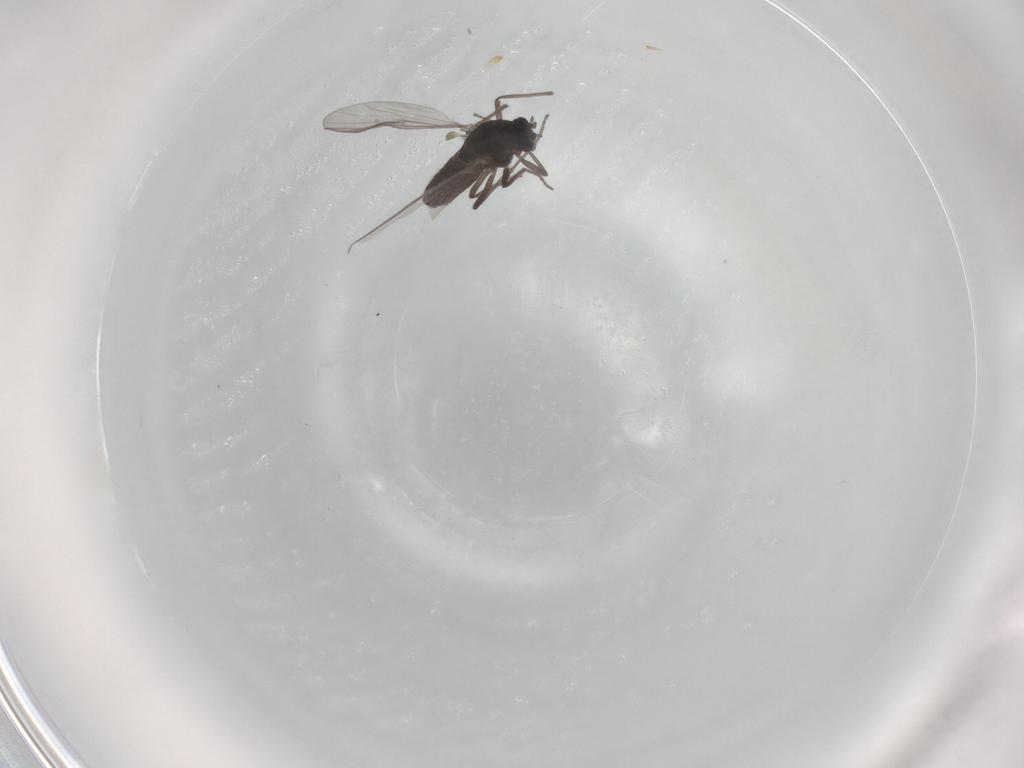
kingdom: Animalia
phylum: Arthropoda
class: Insecta
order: Diptera
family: Chironomidae
